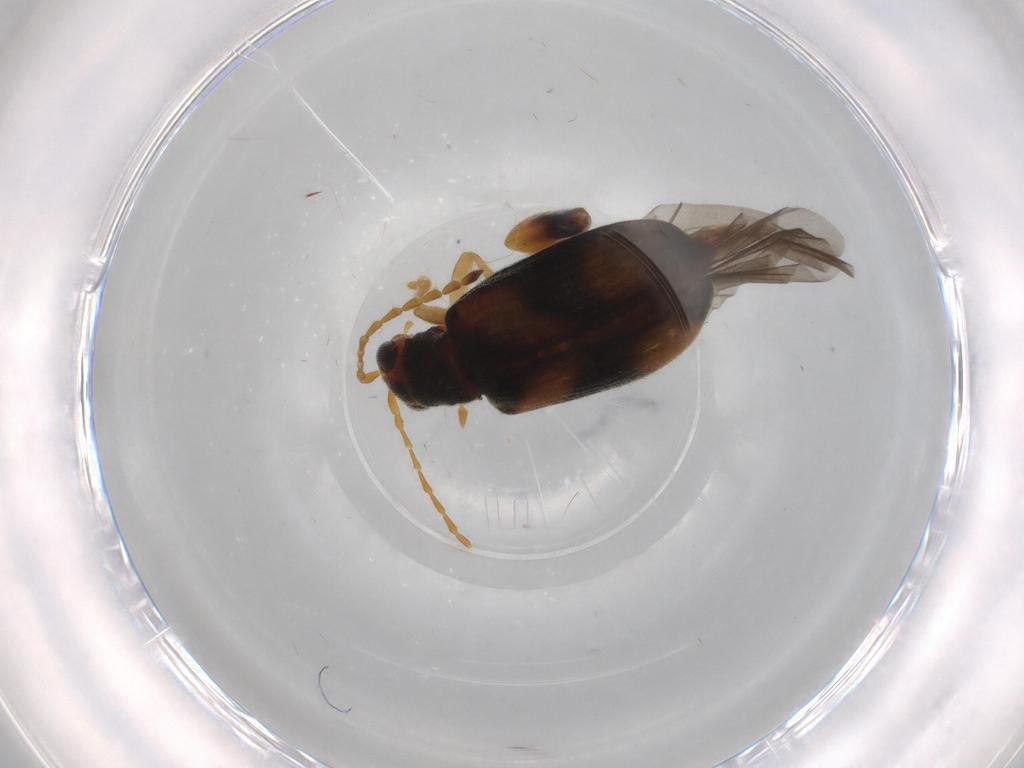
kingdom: Animalia
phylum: Arthropoda
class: Insecta
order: Coleoptera
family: Chrysomelidae
